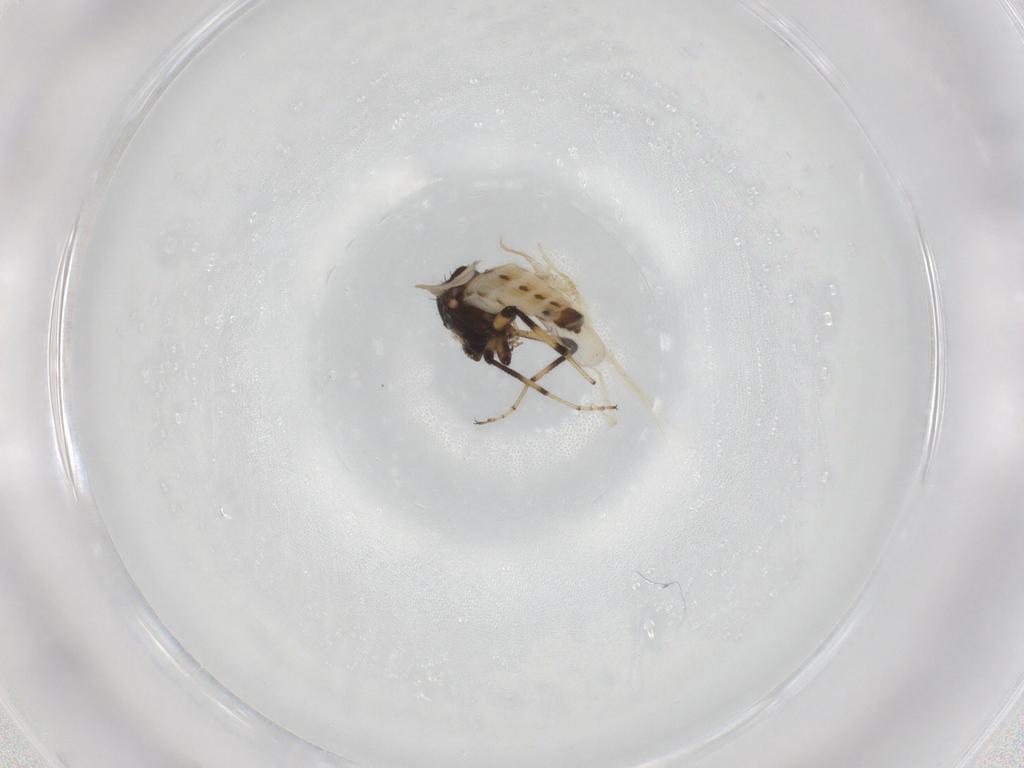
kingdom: Animalia
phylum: Arthropoda
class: Insecta
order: Diptera
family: Ceratopogonidae
